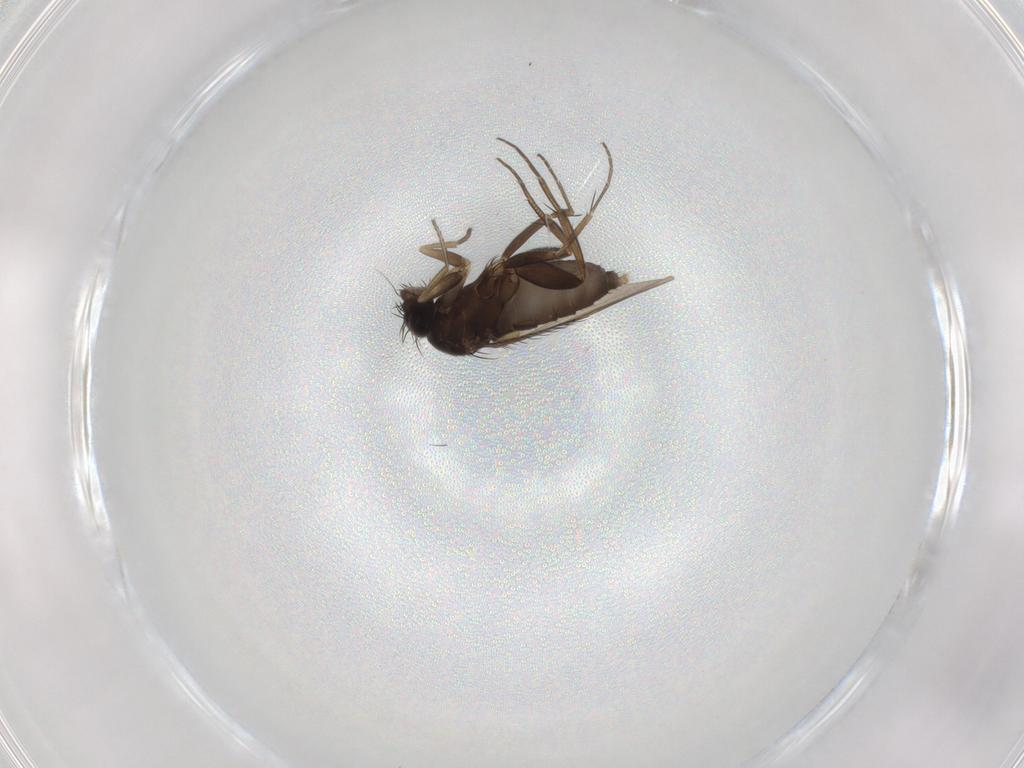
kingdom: Animalia
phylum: Arthropoda
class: Insecta
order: Diptera
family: Phoridae
